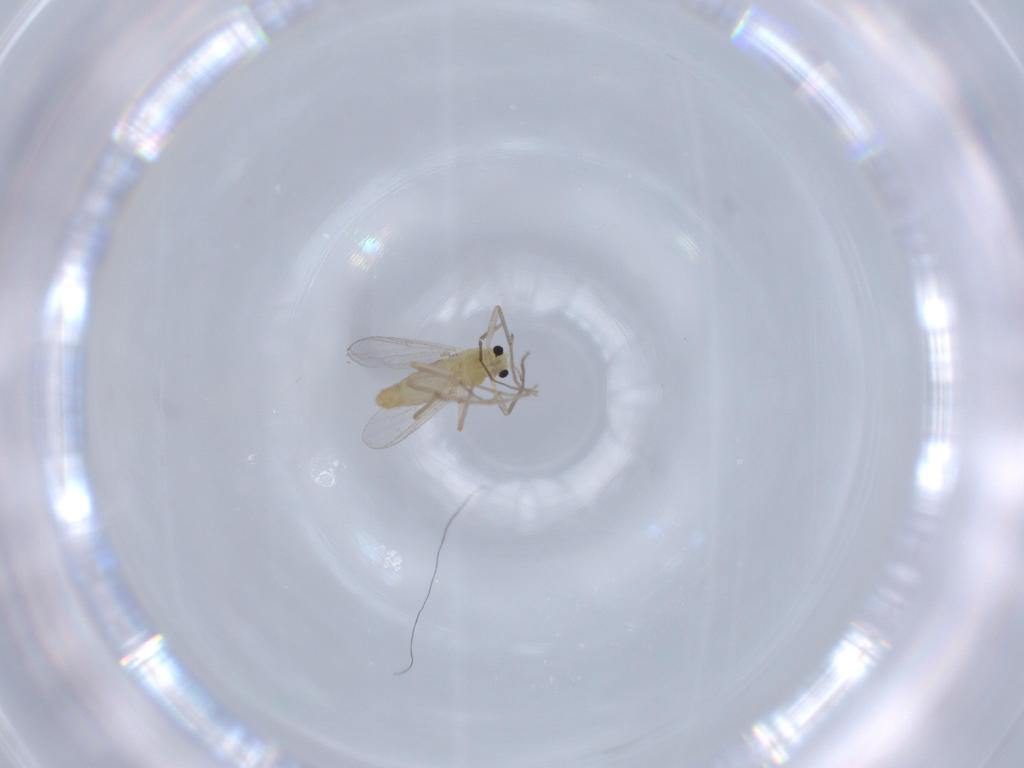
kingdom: Animalia
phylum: Arthropoda
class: Insecta
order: Diptera
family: Chironomidae
